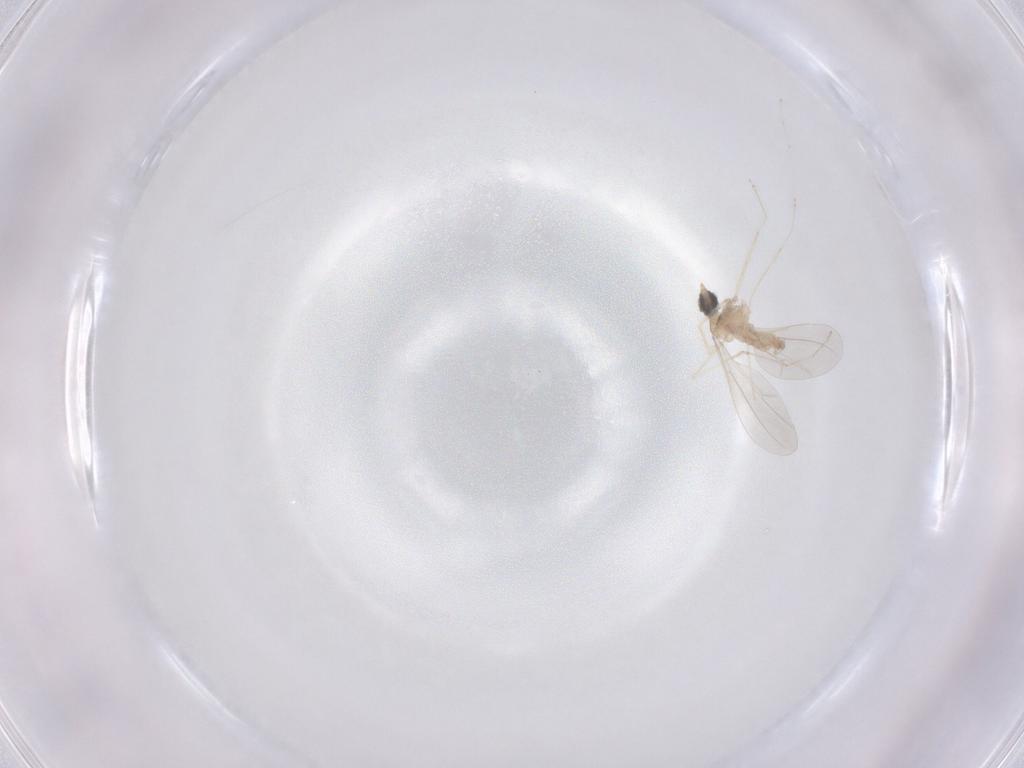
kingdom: Animalia
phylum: Arthropoda
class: Insecta
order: Diptera
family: Cecidomyiidae
